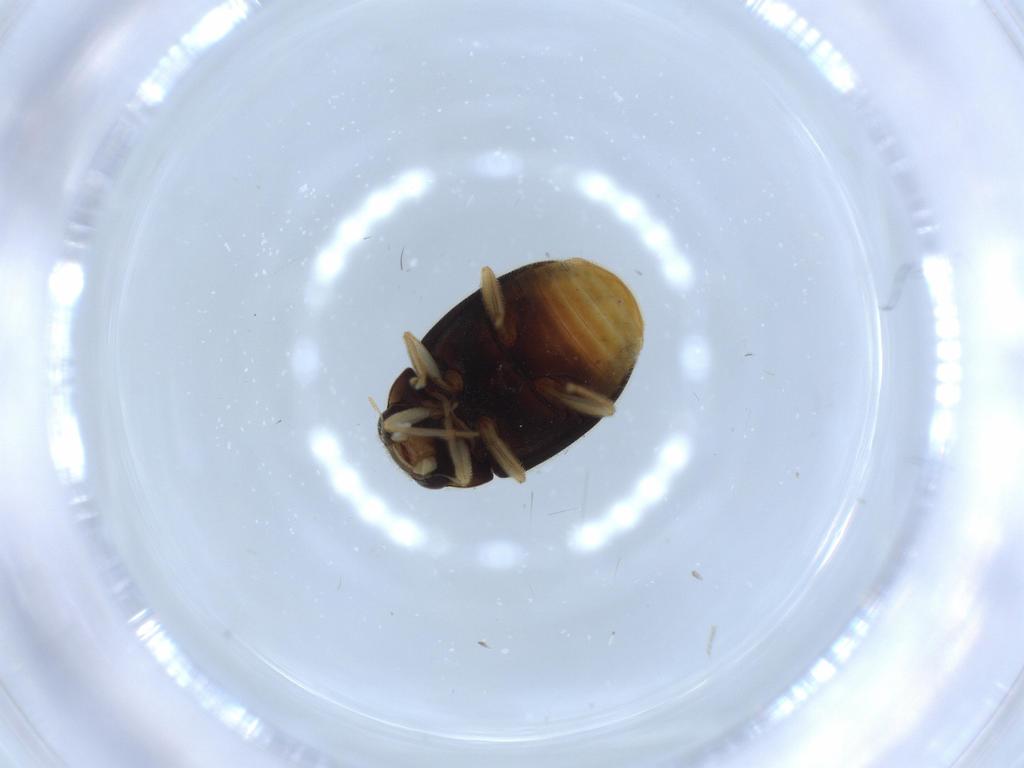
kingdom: Animalia
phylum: Arthropoda
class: Insecta
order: Coleoptera
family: Ptilodactylidae
